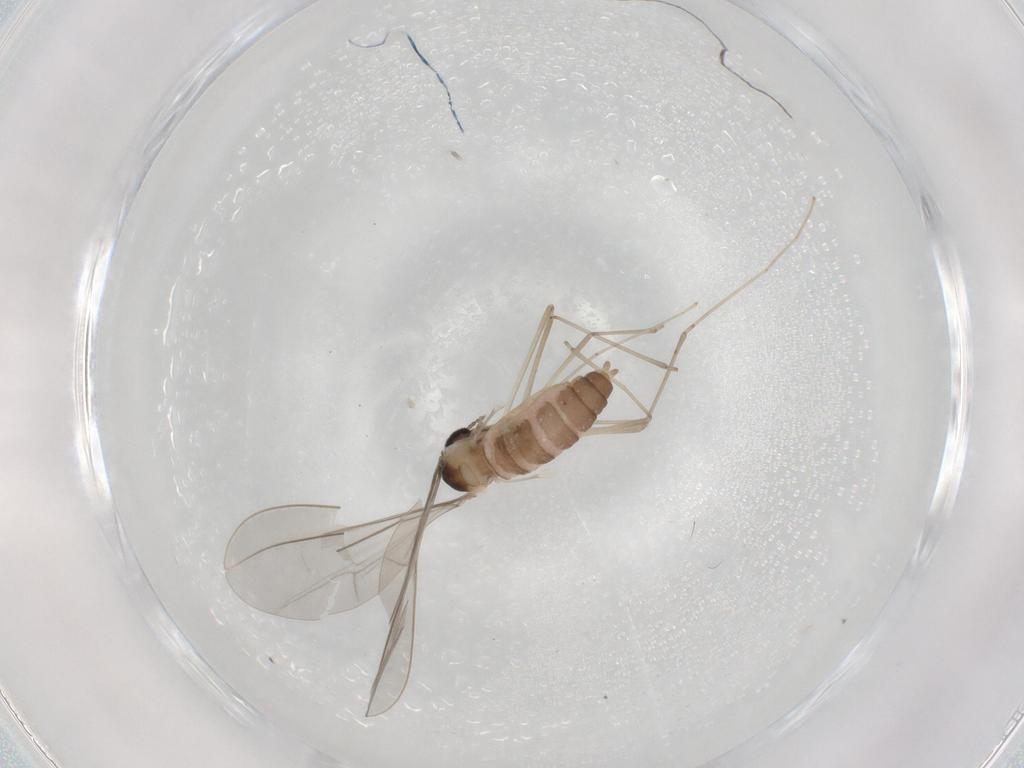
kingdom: Animalia
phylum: Arthropoda
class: Insecta
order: Diptera
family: Cecidomyiidae
